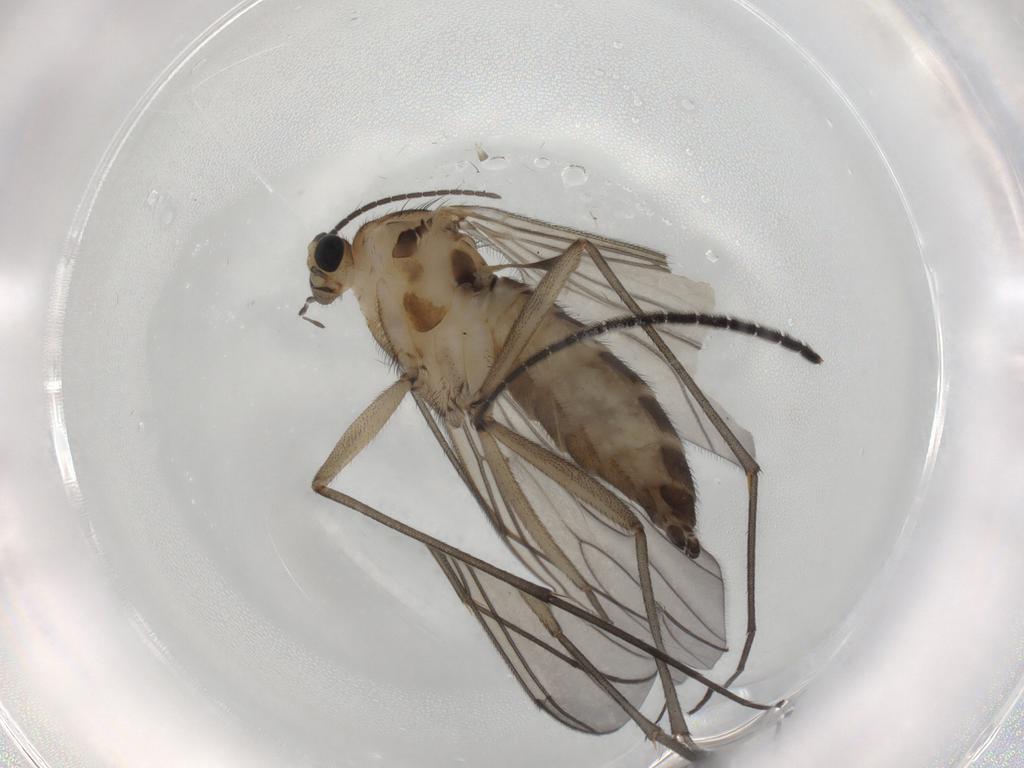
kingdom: Animalia
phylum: Arthropoda
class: Insecta
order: Diptera
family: Sciaridae
